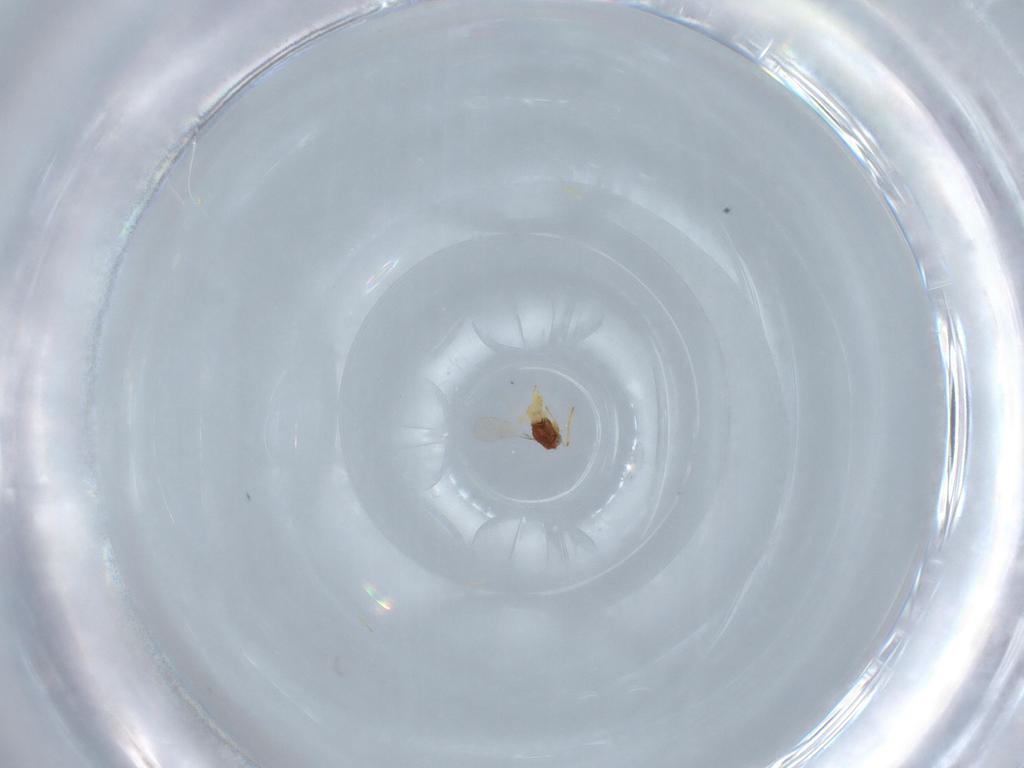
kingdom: Animalia
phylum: Arthropoda
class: Insecta
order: Hymenoptera
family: Aphelinidae
